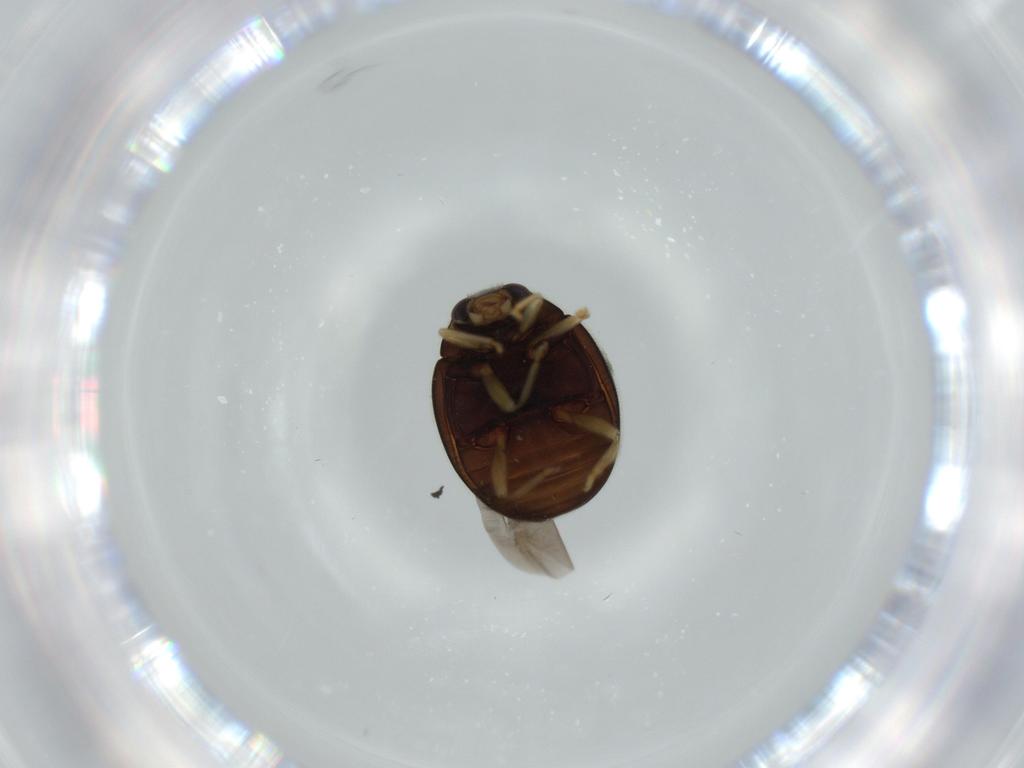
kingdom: Animalia
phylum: Arthropoda
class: Insecta
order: Coleoptera
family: Coccinellidae
